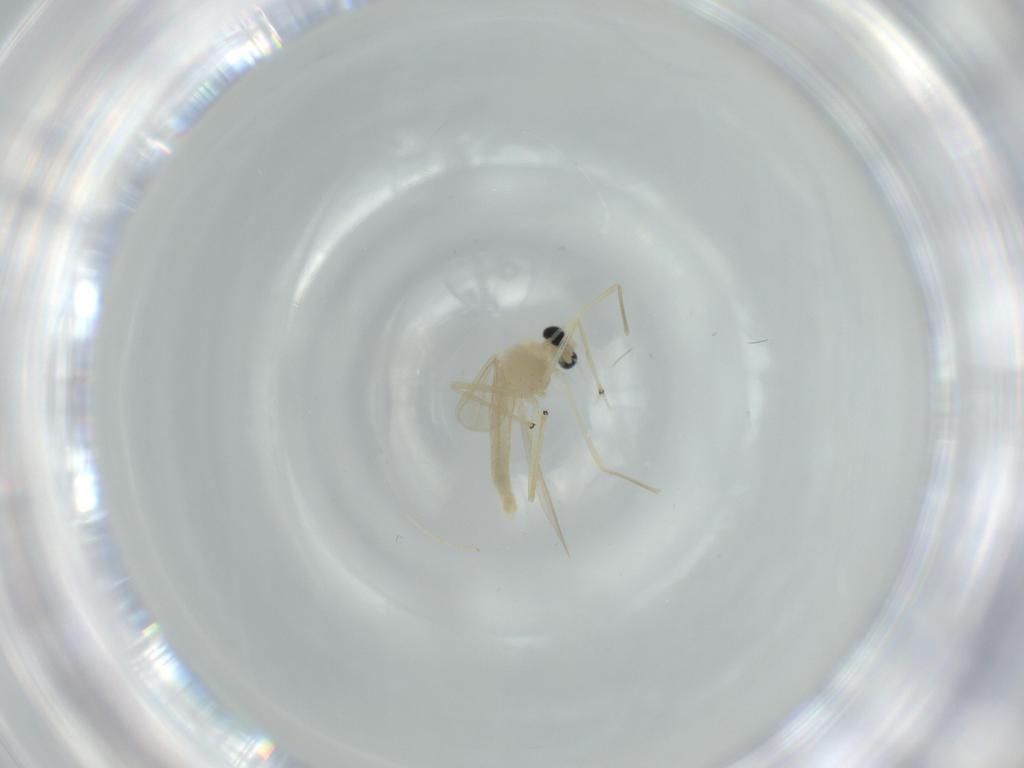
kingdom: Animalia
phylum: Arthropoda
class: Insecta
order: Diptera
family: Chironomidae
